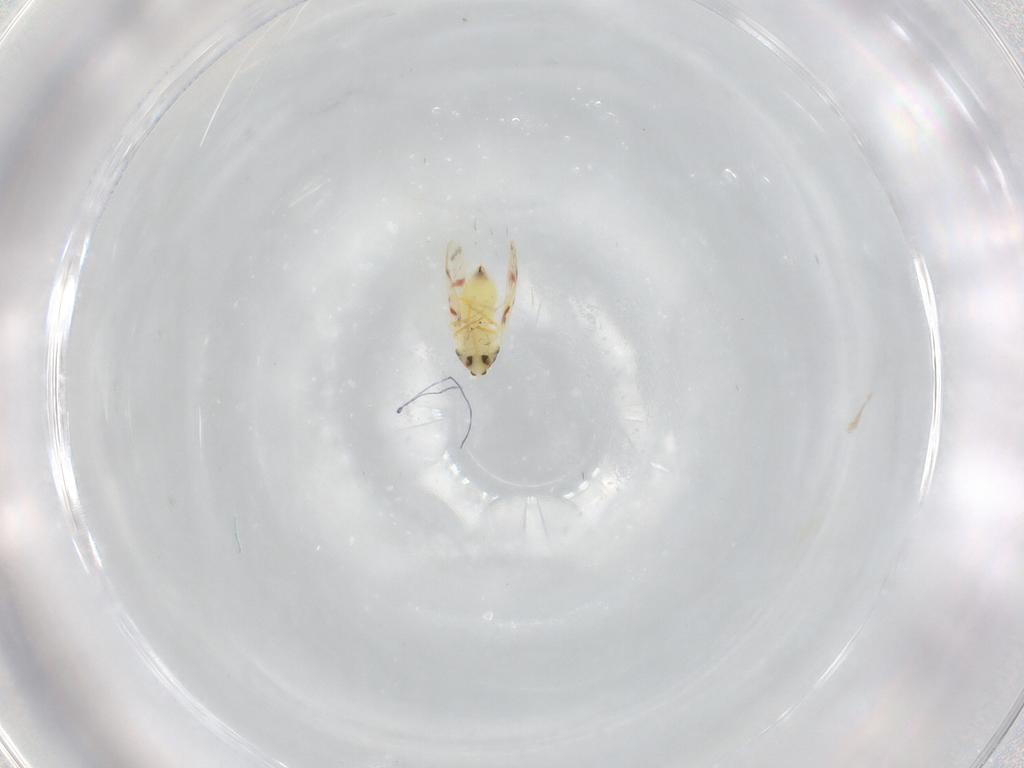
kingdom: Animalia
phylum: Arthropoda
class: Insecta
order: Hemiptera
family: Aleyrodidae
